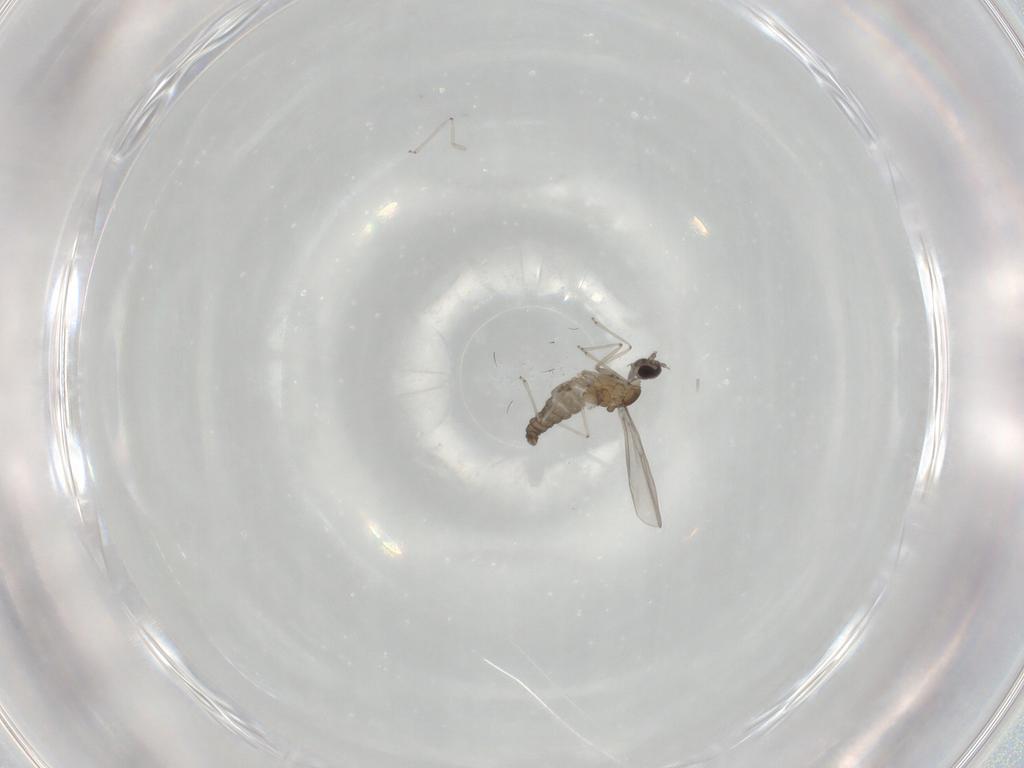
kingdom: Animalia
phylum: Arthropoda
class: Insecta
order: Diptera
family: Cecidomyiidae
